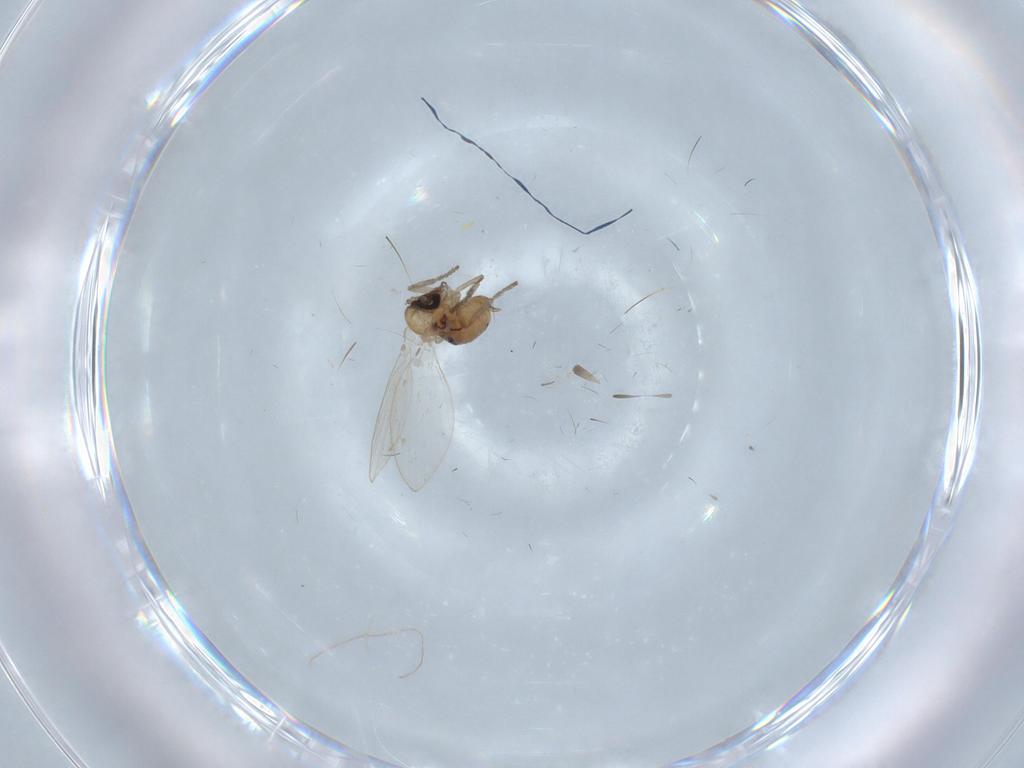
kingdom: Animalia
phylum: Arthropoda
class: Insecta
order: Diptera
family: Psychodidae
